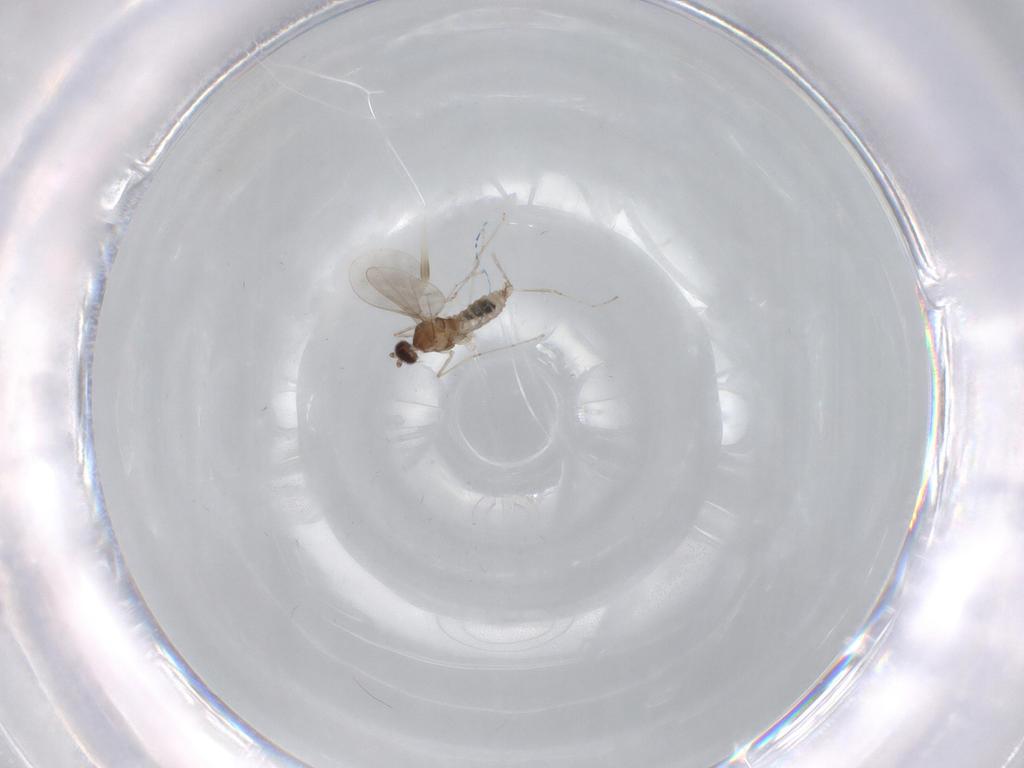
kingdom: Animalia
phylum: Arthropoda
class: Insecta
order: Diptera
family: Cecidomyiidae
